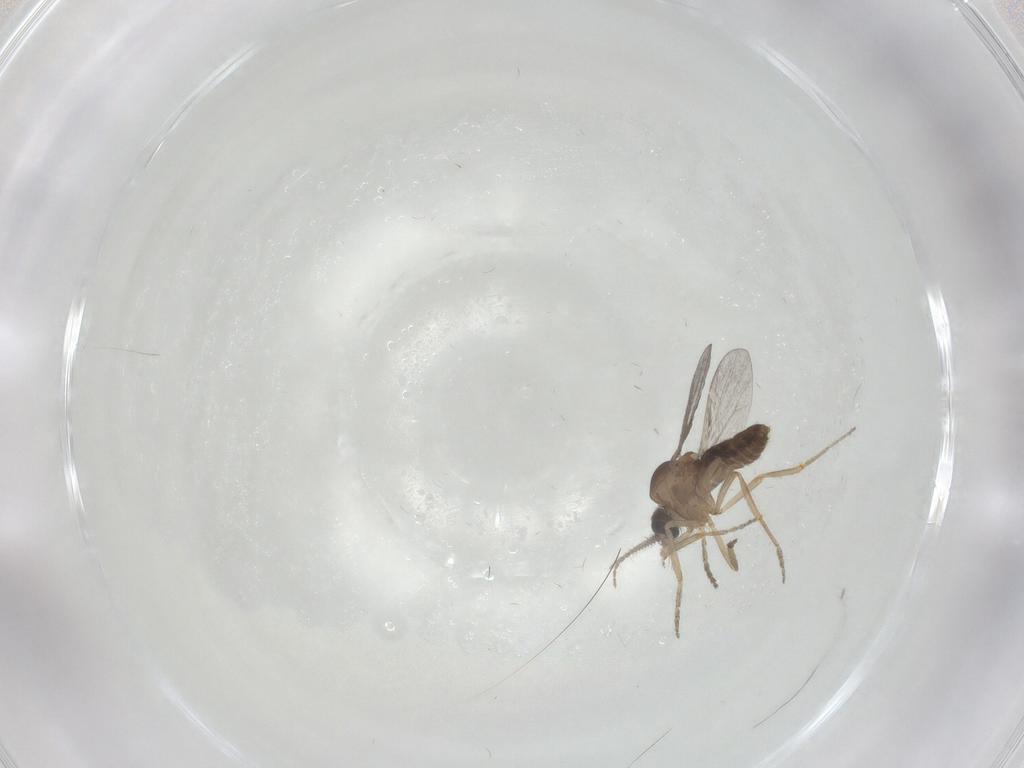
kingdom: Animalia
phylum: Arthropoda
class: Insecta
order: Diptera
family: Ceratopogonidae
